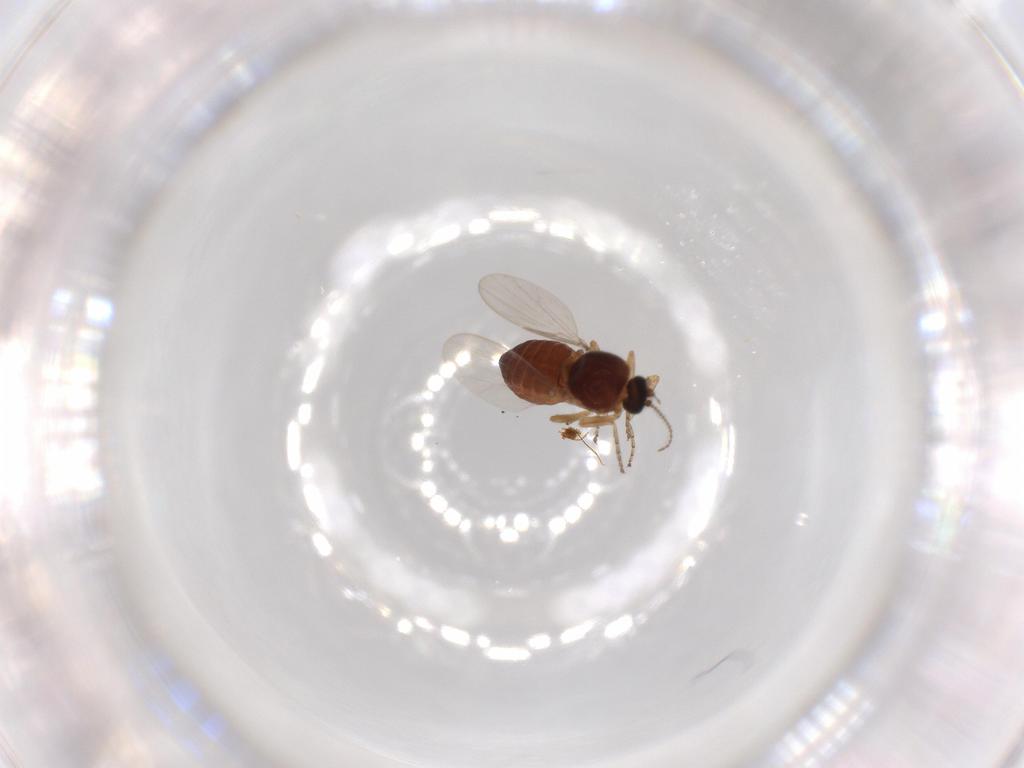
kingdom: Animalia
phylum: Arthropoda
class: Insecta
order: Diptera
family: Ceratopogonidae
